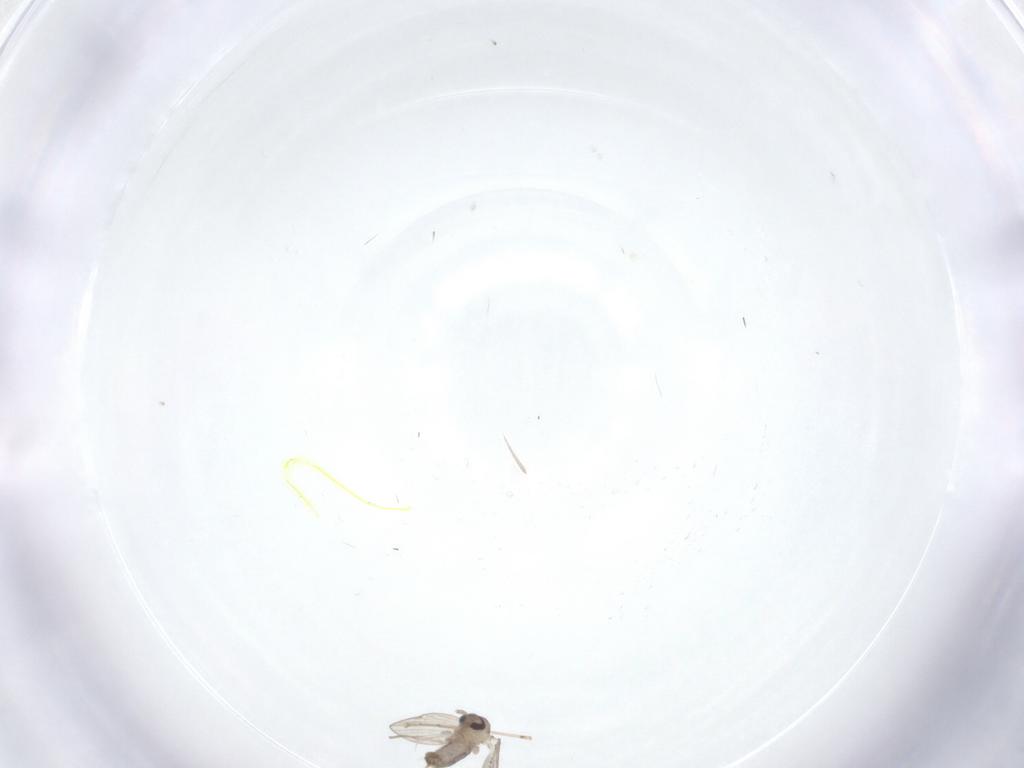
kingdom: Animalia
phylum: Arthropoda
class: Insecta
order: Diptera
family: Psychodidae
